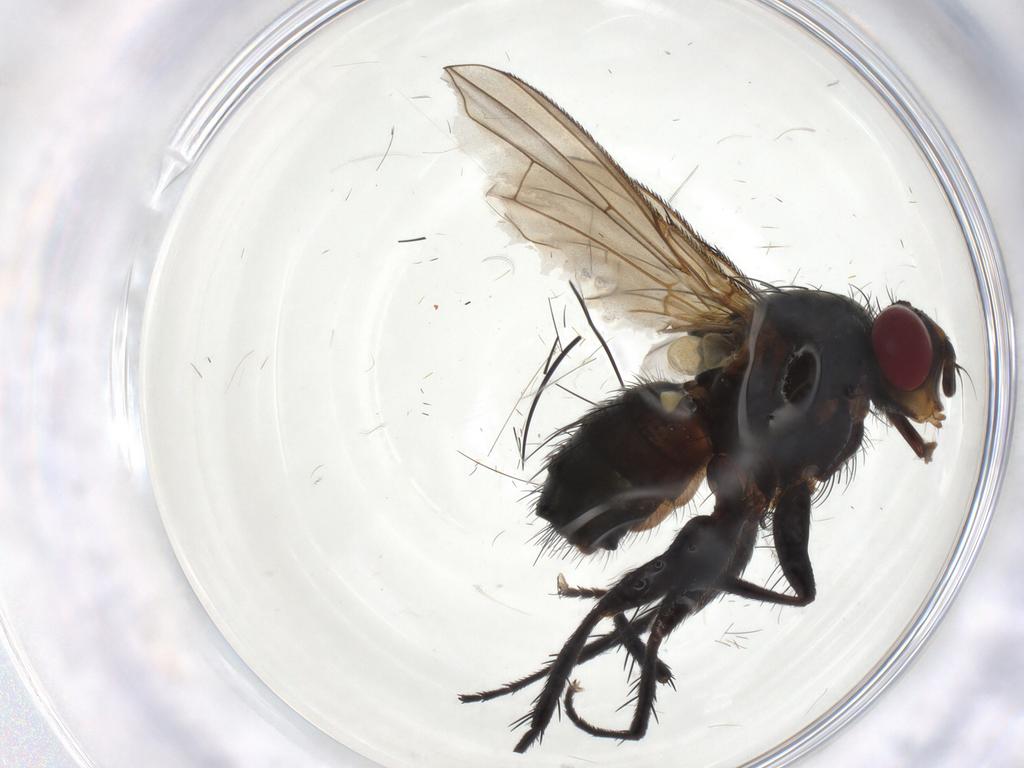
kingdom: Animalia
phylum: Arthropoda
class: Insecta
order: Diptera
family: Calliphoridae
